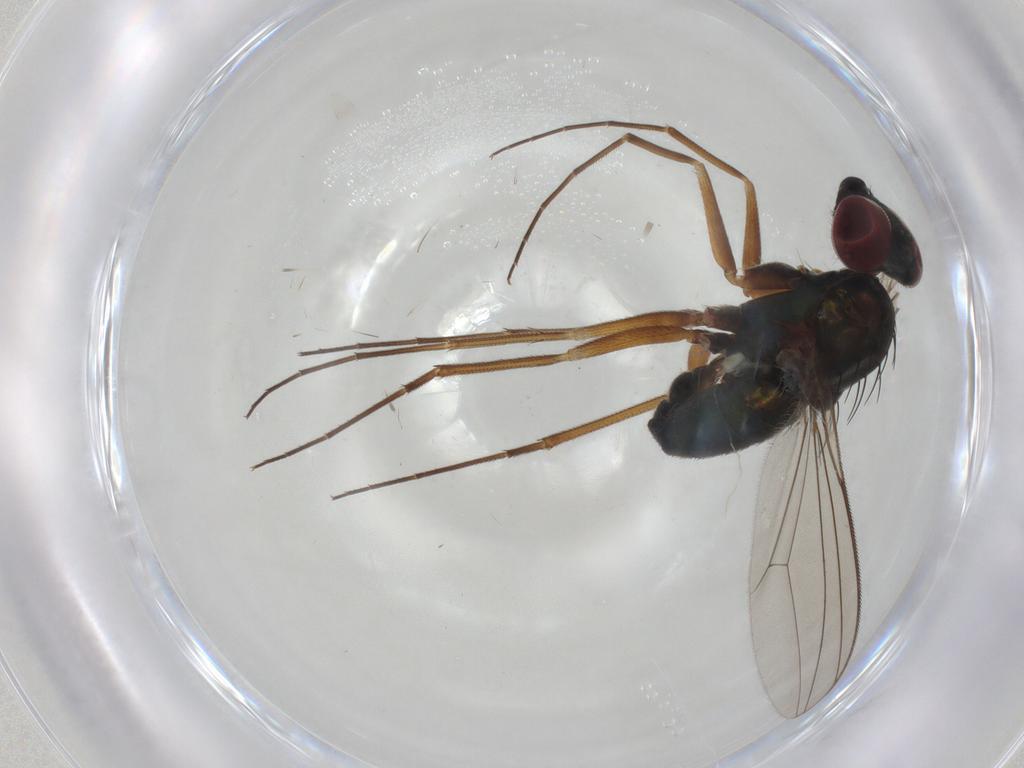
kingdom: Animalia
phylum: Arthropoda
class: Insecta
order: Diptera
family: Dolichopodidae
